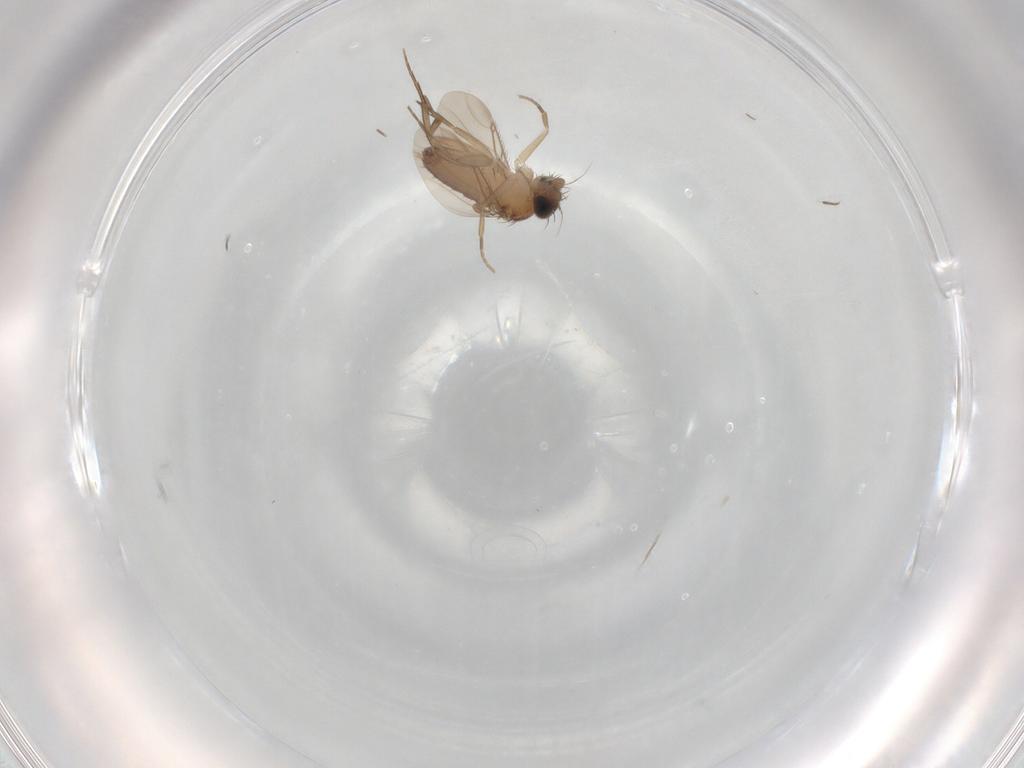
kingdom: Animalia
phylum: Arthropoda
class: Insecta
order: Diptera
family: Phoridae
